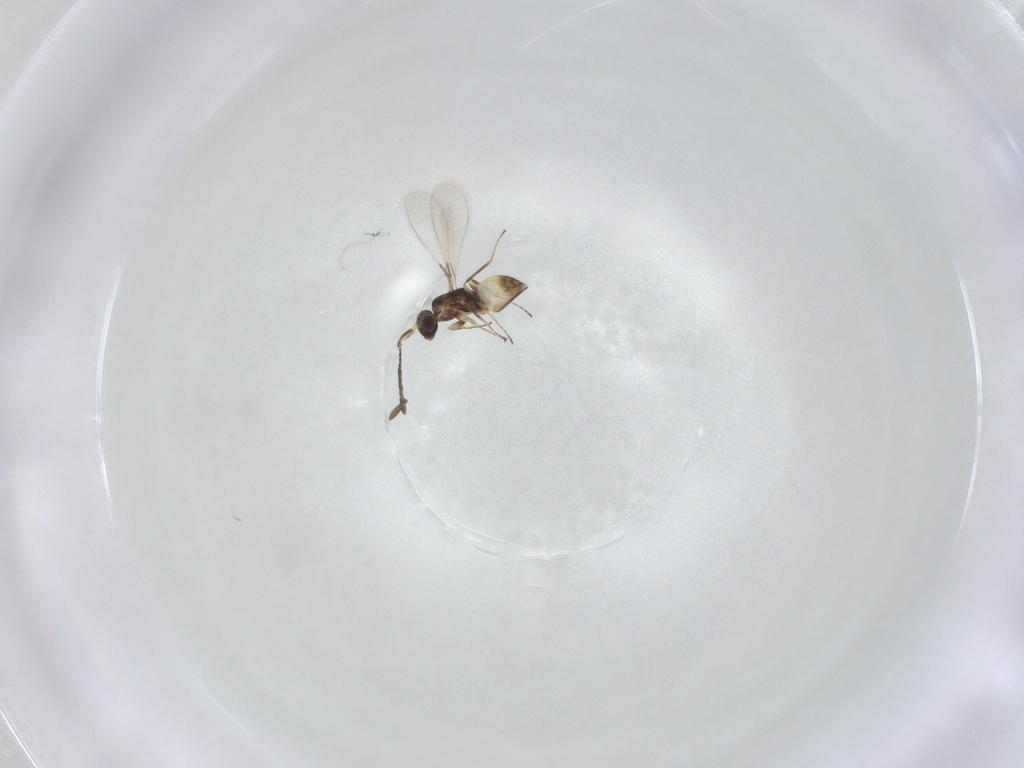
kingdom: Animalia
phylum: Arthropoda
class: Insecta
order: Hymenoptera
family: Mymaridae
